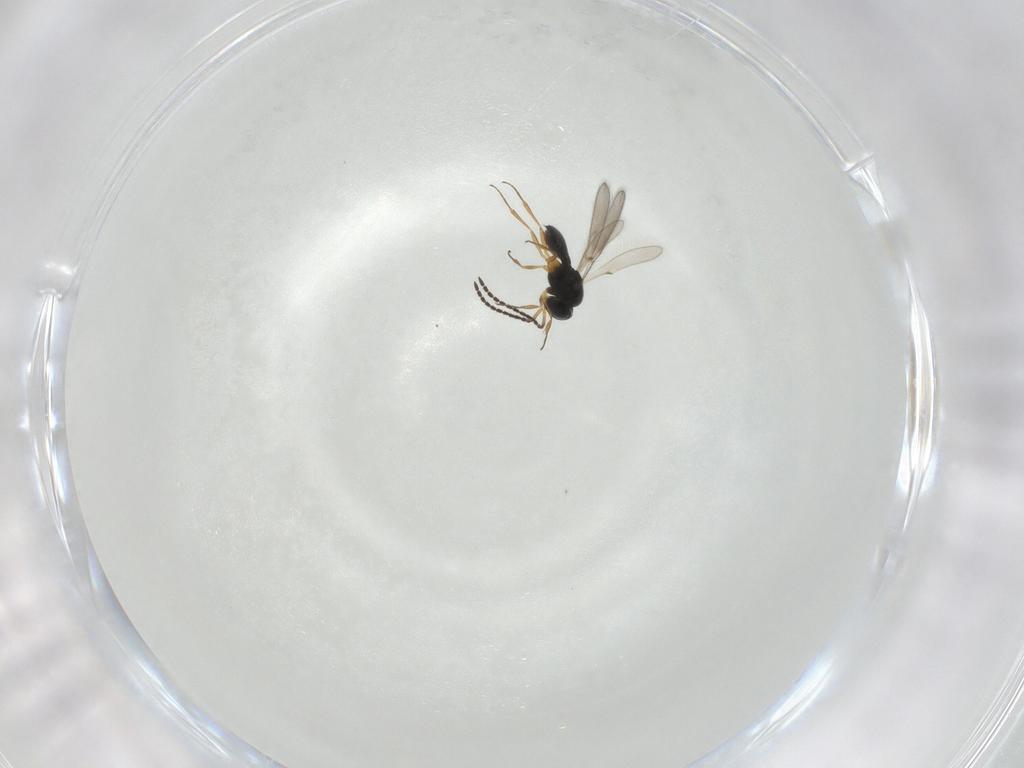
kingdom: Animalia
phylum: Arthropoda
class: Insecta
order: Hymenoptera
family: Scelionidae
